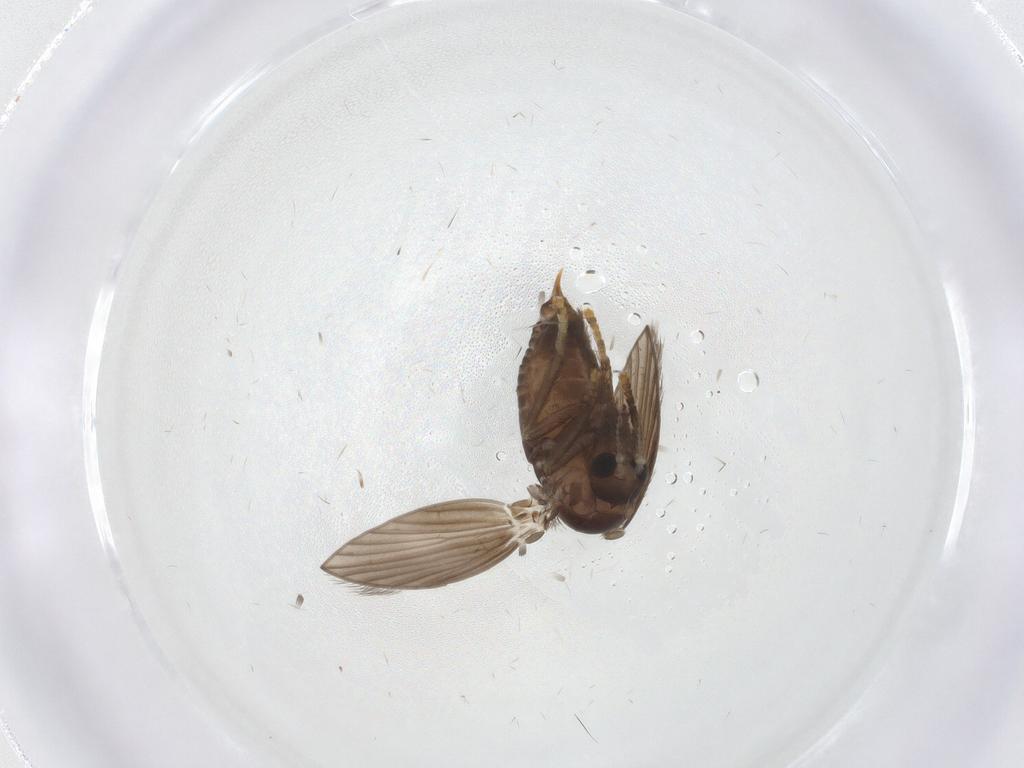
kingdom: Animalia
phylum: Arthropoda
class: Insecta
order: Diptera
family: Psychodidae
